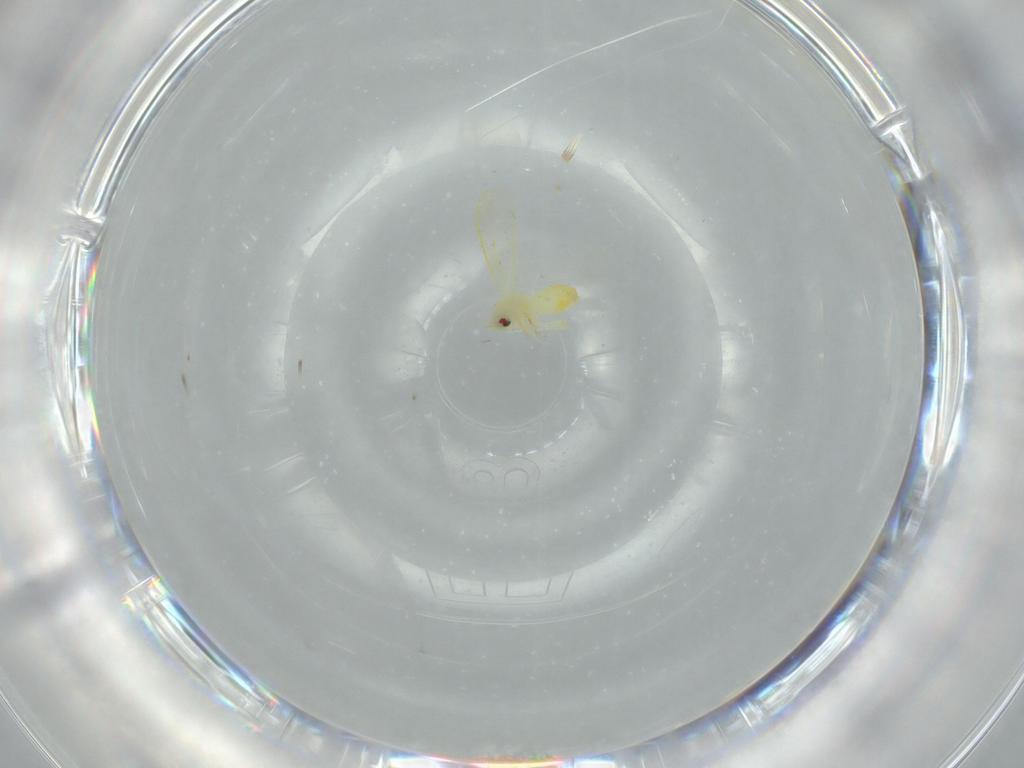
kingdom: Animalia
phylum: Arthropoda
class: Insecta
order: Hemiptera
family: Aleyrodidae
